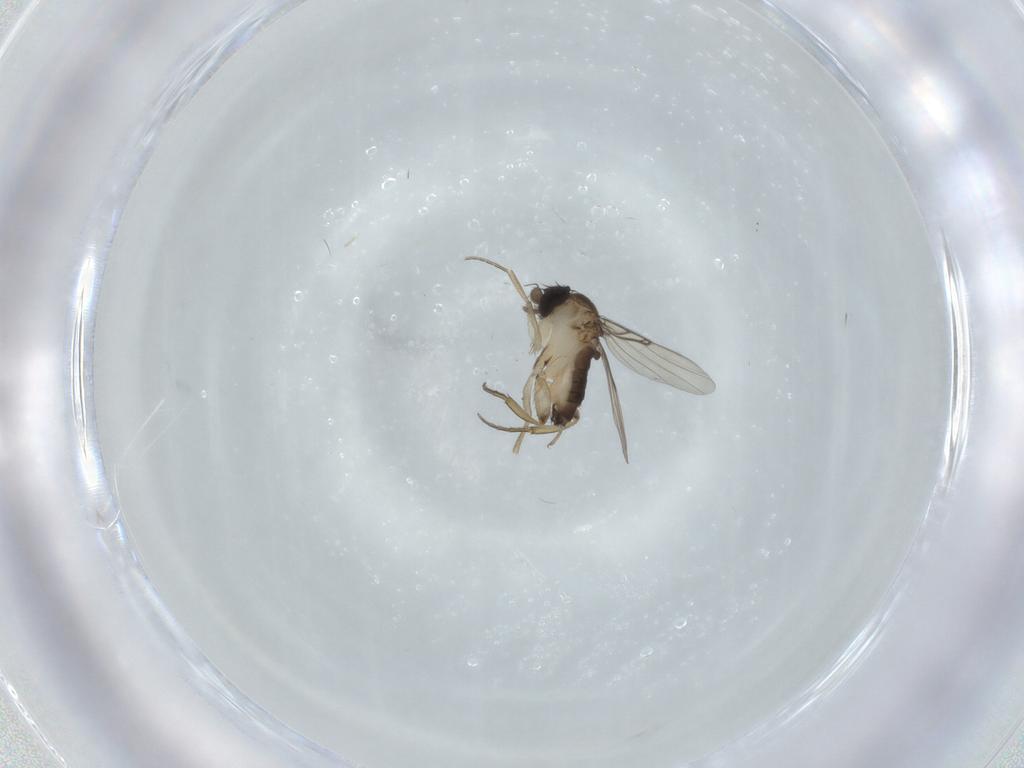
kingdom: Animalia
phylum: Arthropoda
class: Insecta
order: Diptera
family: Phoridae
